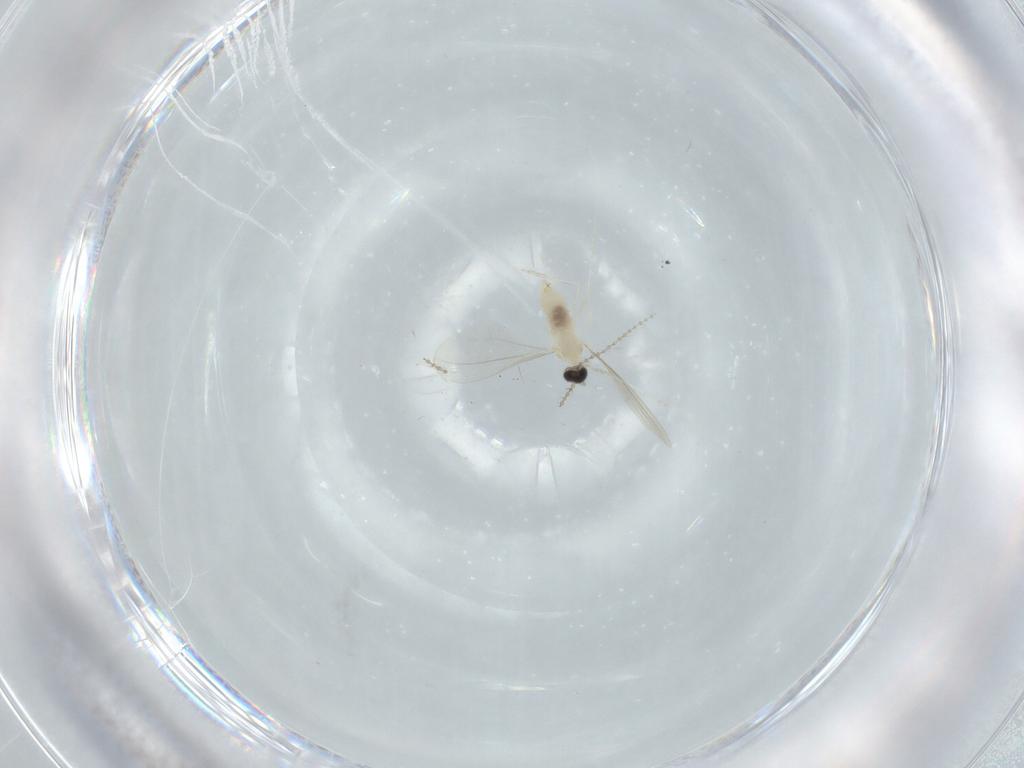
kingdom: Animalia
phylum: Arthropoda
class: Insecta
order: Diptera
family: Cecidomyiidae
